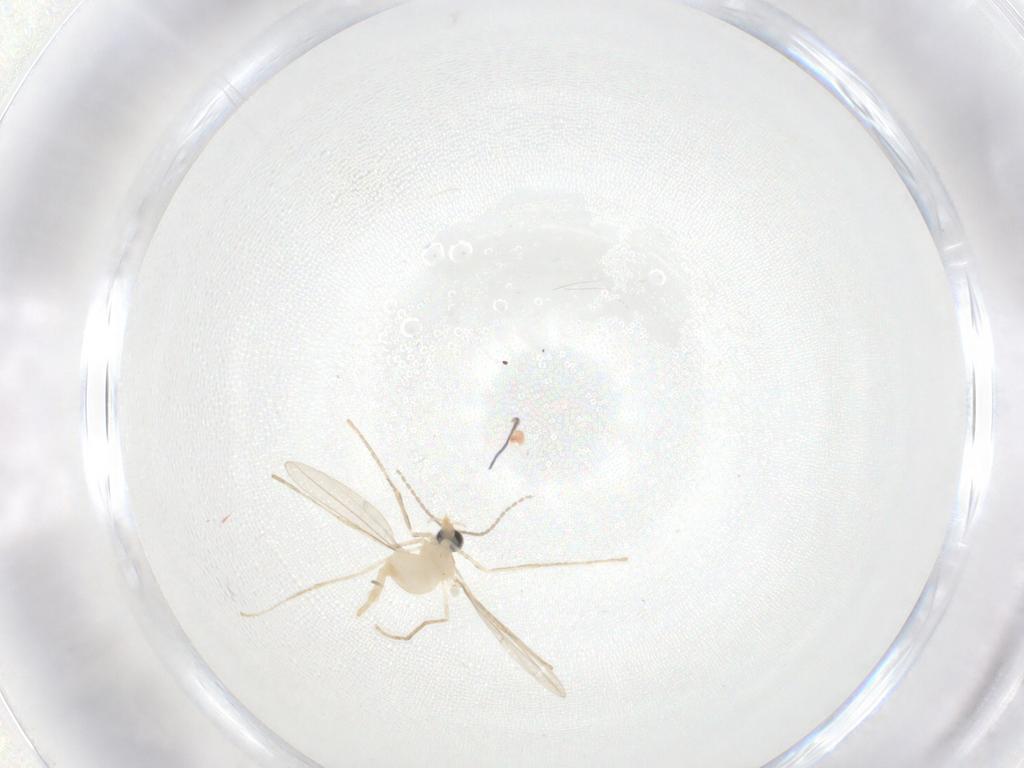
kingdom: Animalia
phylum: Arthropoda
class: Insecta
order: Diptera
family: Cecidomyiidae
